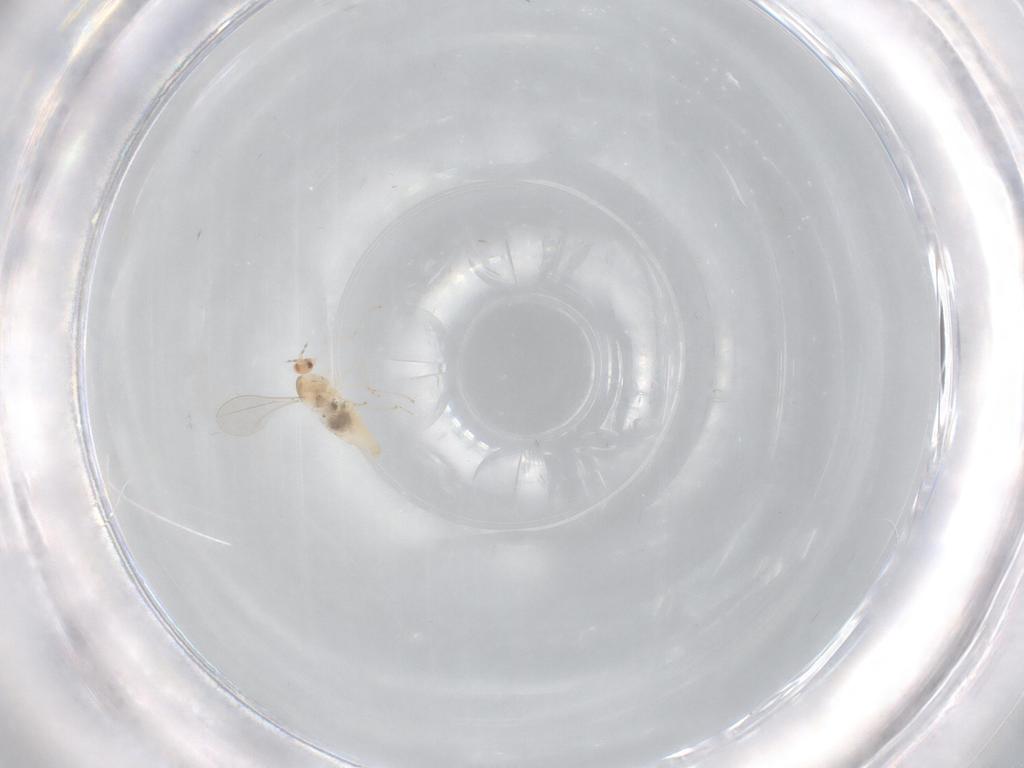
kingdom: Animalia
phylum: Arthropoda
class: Insecta
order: Diptera
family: Cecidomyiidae
